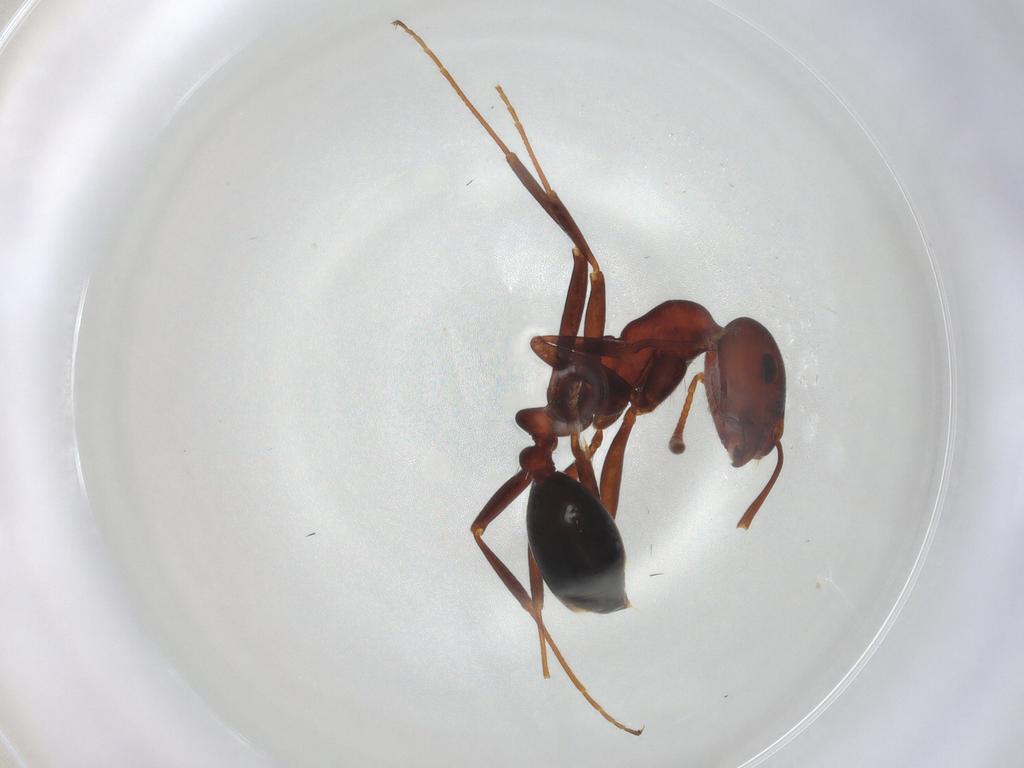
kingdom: Animalia
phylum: Arthropoda
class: Insecta
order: Hymenoptera
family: Formicidae
